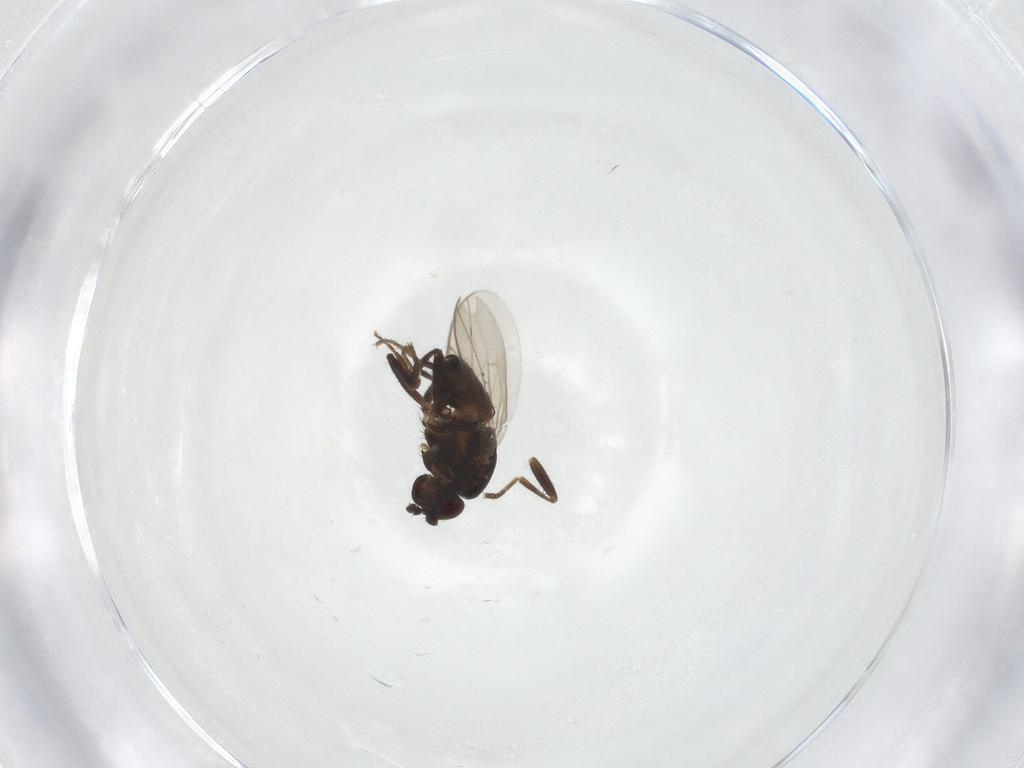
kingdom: Animalia
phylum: Arthropoda
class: Insecta
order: Diptera
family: Sphaeroceridae
